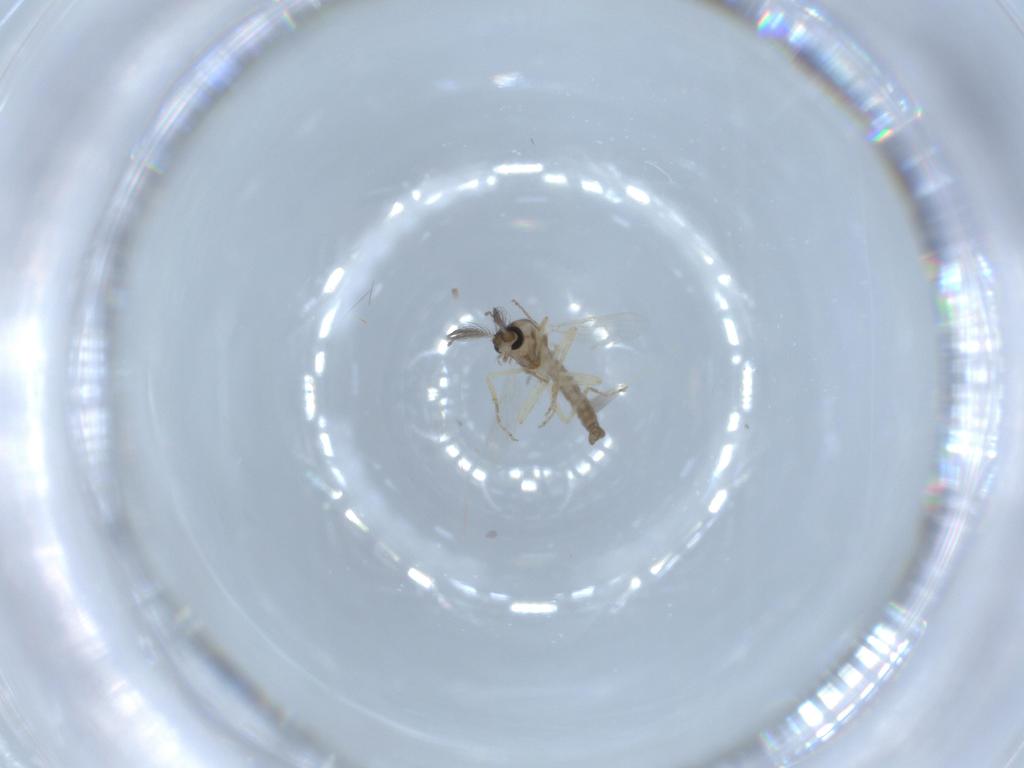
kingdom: Animalia
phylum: Arthropoda
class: Insecta
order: Diptera
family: Ceratopogonidae
